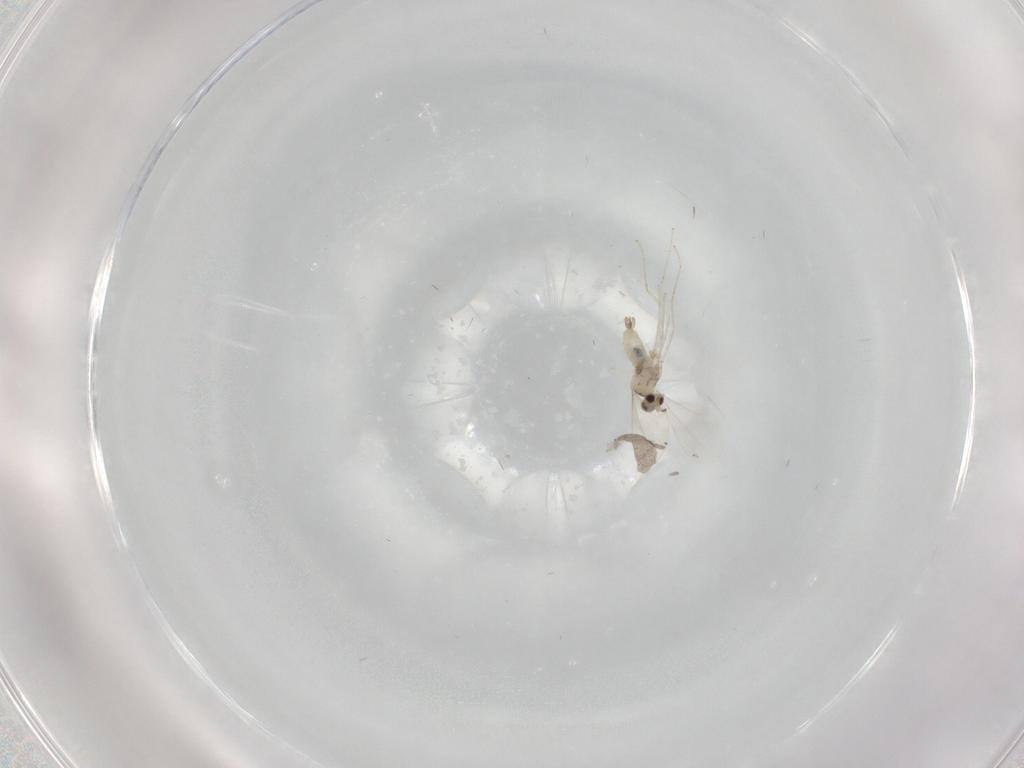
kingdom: Animalia
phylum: Arthropoda
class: Insecta
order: Diptera
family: Cecidomyiidae
